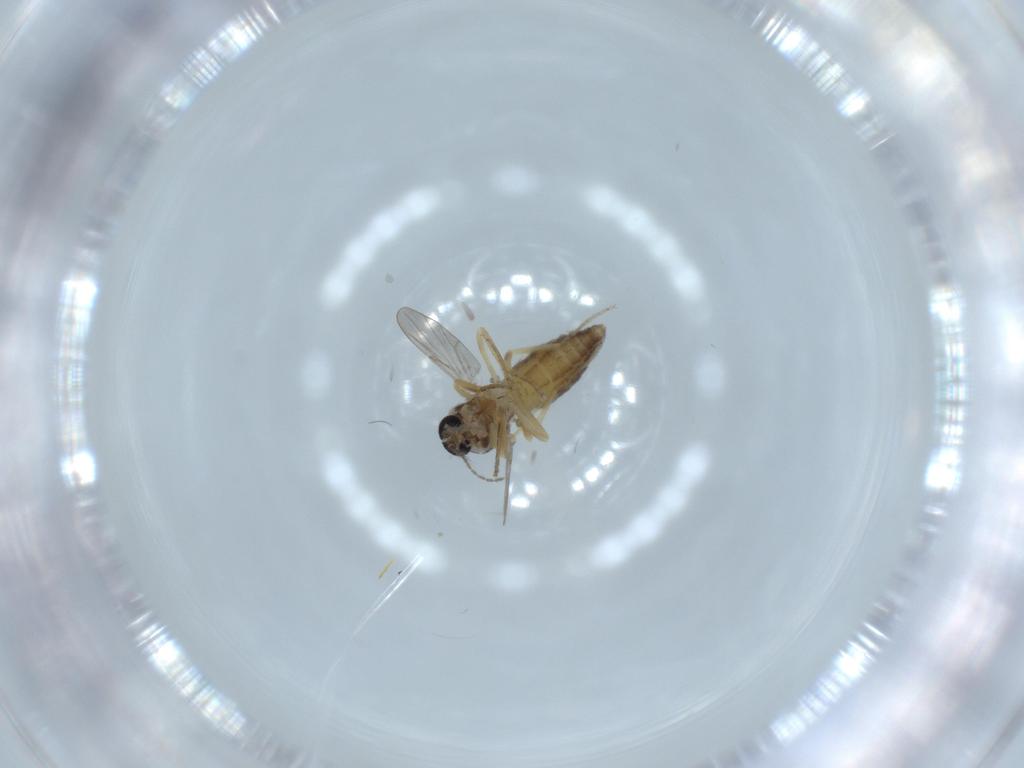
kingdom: Animalia
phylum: Arthropoda
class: Insecta
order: Diptera
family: Ceratopogonidae
